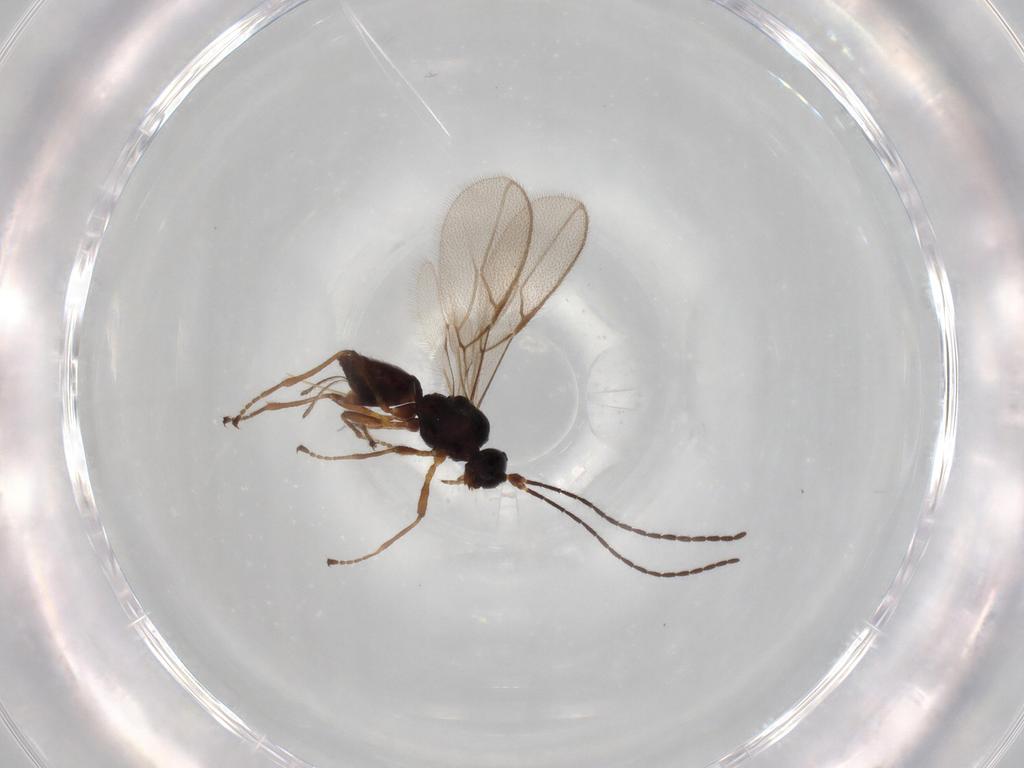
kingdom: Animalia
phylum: Arthropoda
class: Insecta
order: Hymenoptera
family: Braconidae
